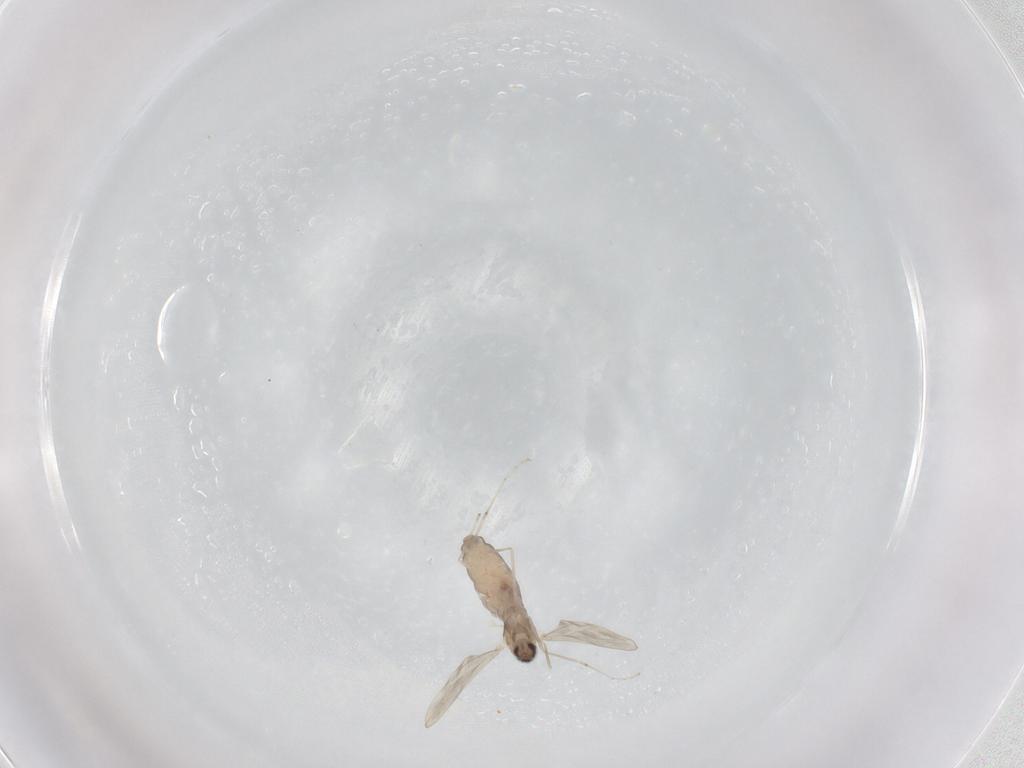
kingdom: Animalia
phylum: Arthropoda
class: Insecta
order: Diptera
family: Cecidomyiidae
